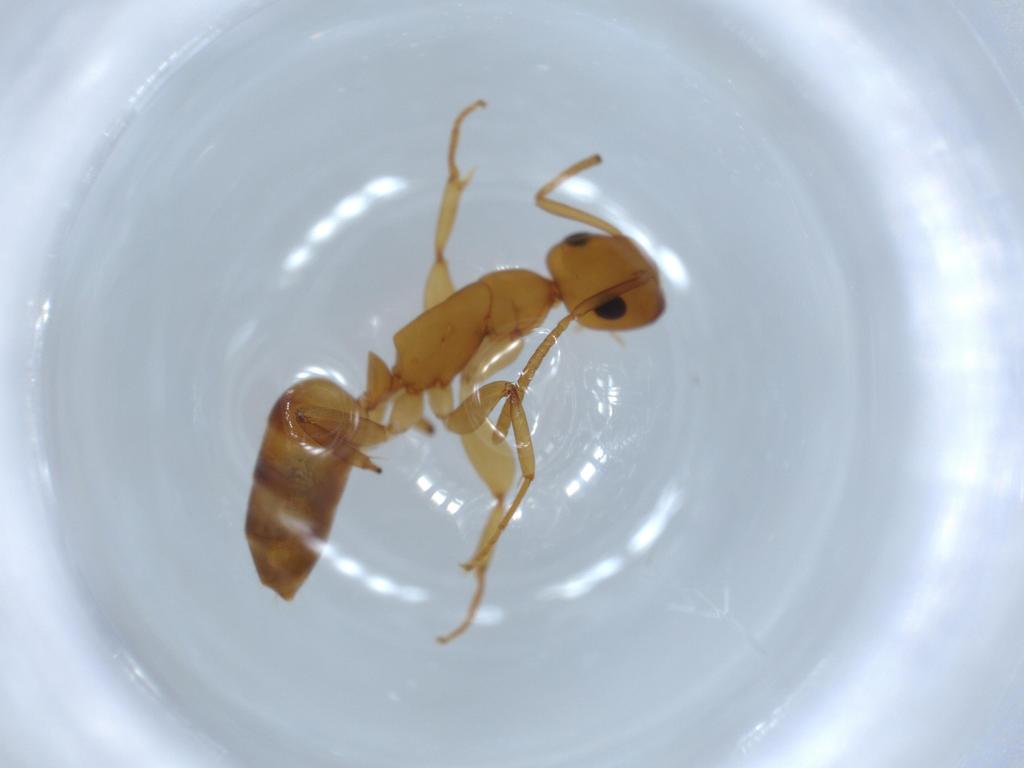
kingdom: Animalia
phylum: Arthropoda
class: Insecta
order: Hymenoptera
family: Formicidae
